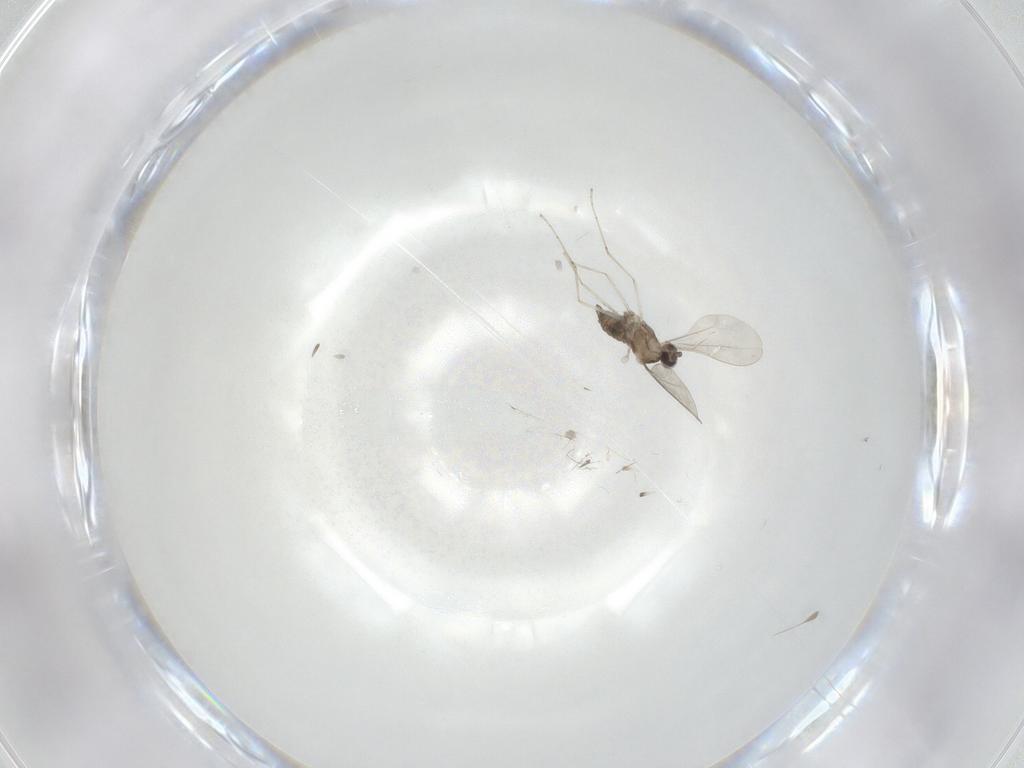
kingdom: Animalia
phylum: Arthropoda
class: Insecta
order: Diptera
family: Cecidomyiidae
